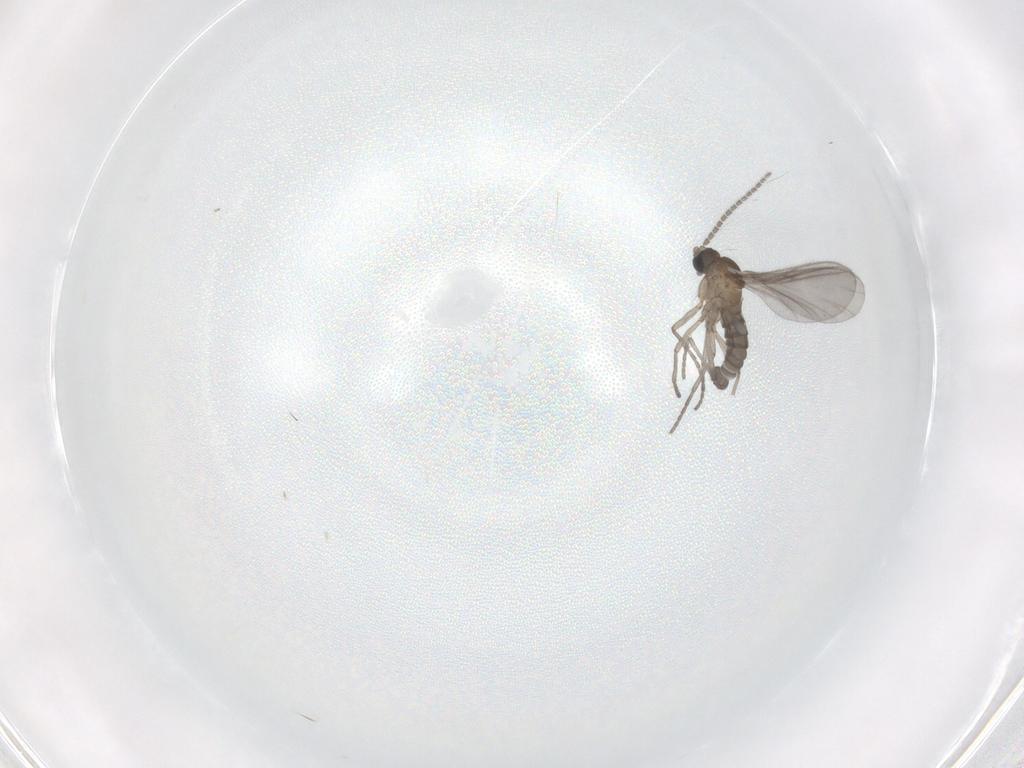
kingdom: Animalia
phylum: Arthropoda
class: Insecta
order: Diptera
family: Sciaridae
